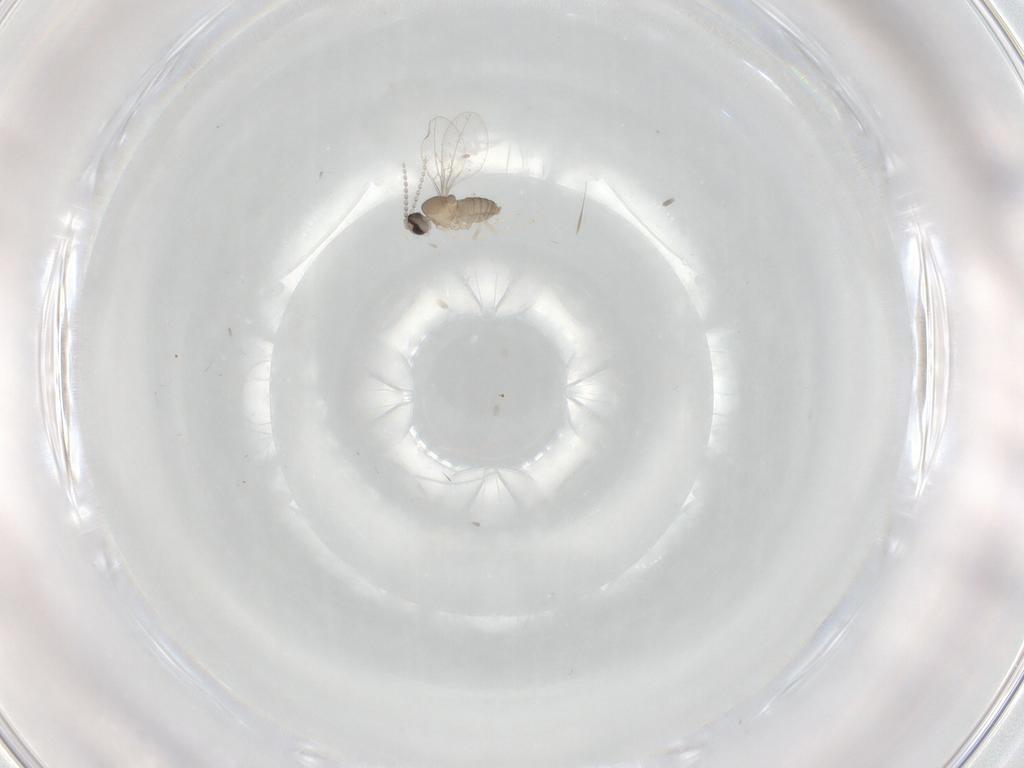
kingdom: Animalia
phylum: Arthropoda
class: Insecta
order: Diptera
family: Cecidomyiidae
